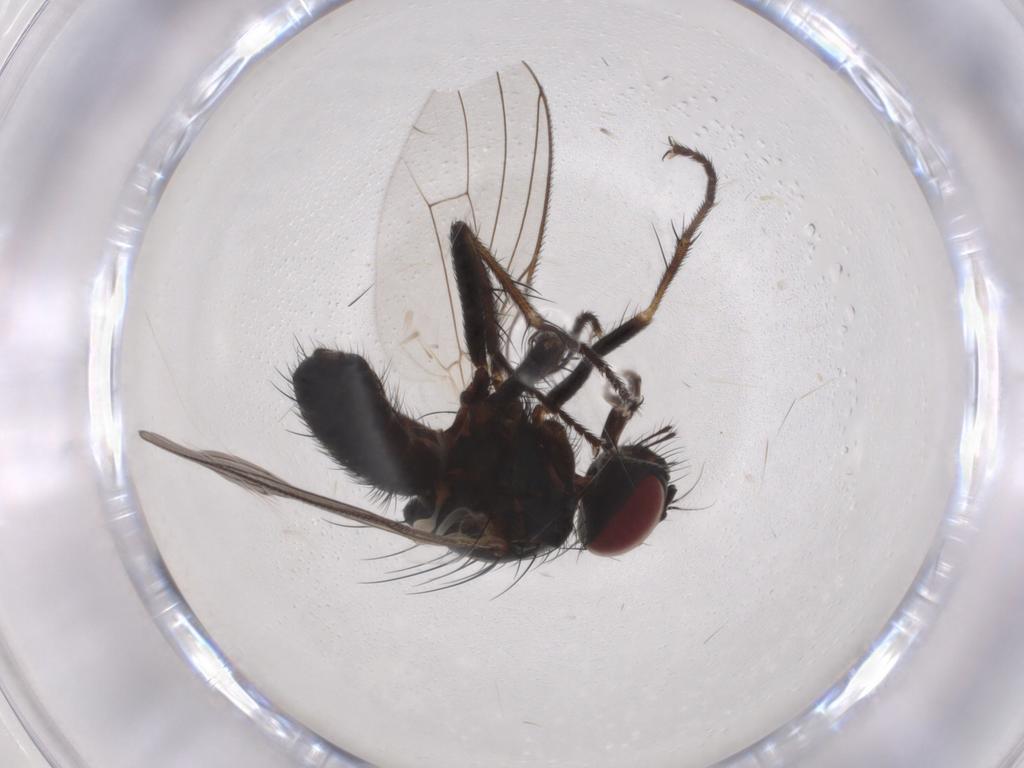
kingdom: Animalia
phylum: Arthropoda
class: Insecta
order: Diptera
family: Muscidae
